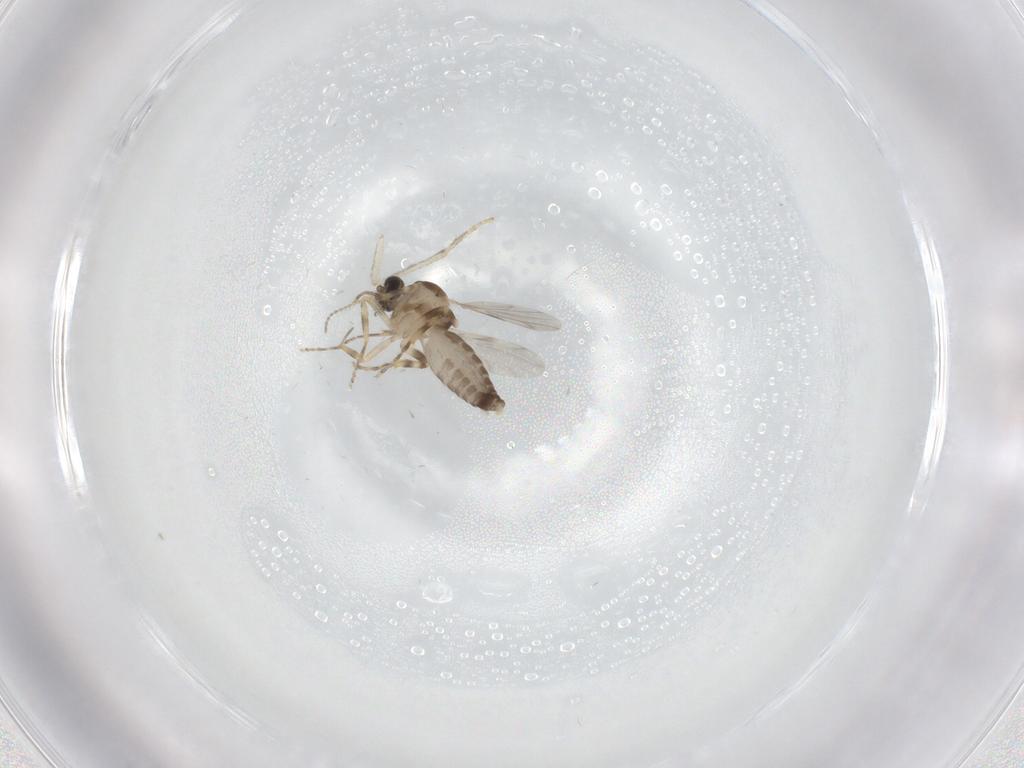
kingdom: Animalia
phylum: Arthropoda
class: Insecta
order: Diptera
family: Ceratopogonidae
